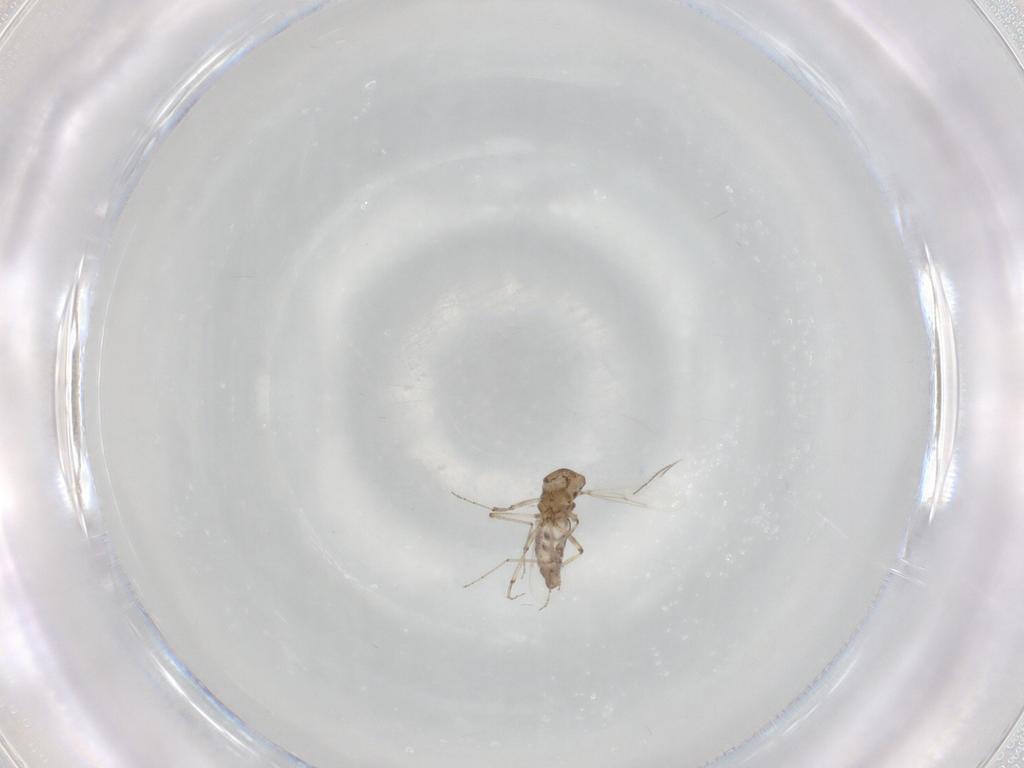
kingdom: Animalia
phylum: Arthropoda
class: Insecta
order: Diptera
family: Ceratopogonidae
